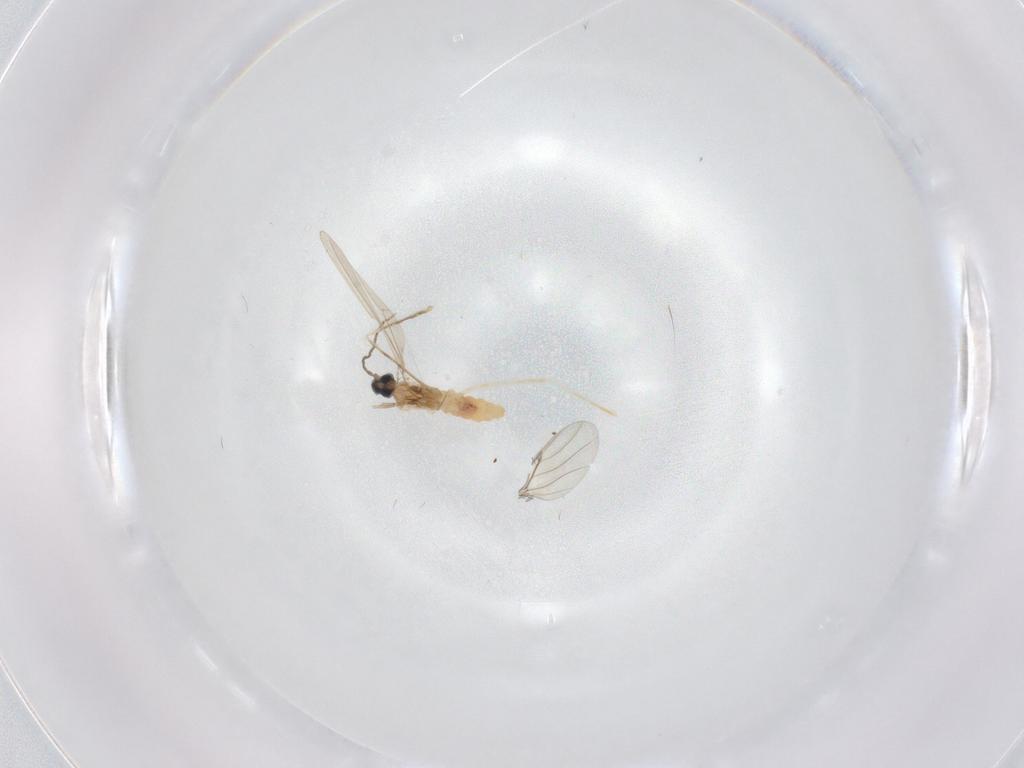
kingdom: Animalia
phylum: Arthropoda
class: Insecta
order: Diptera
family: Cecidomyiidae
